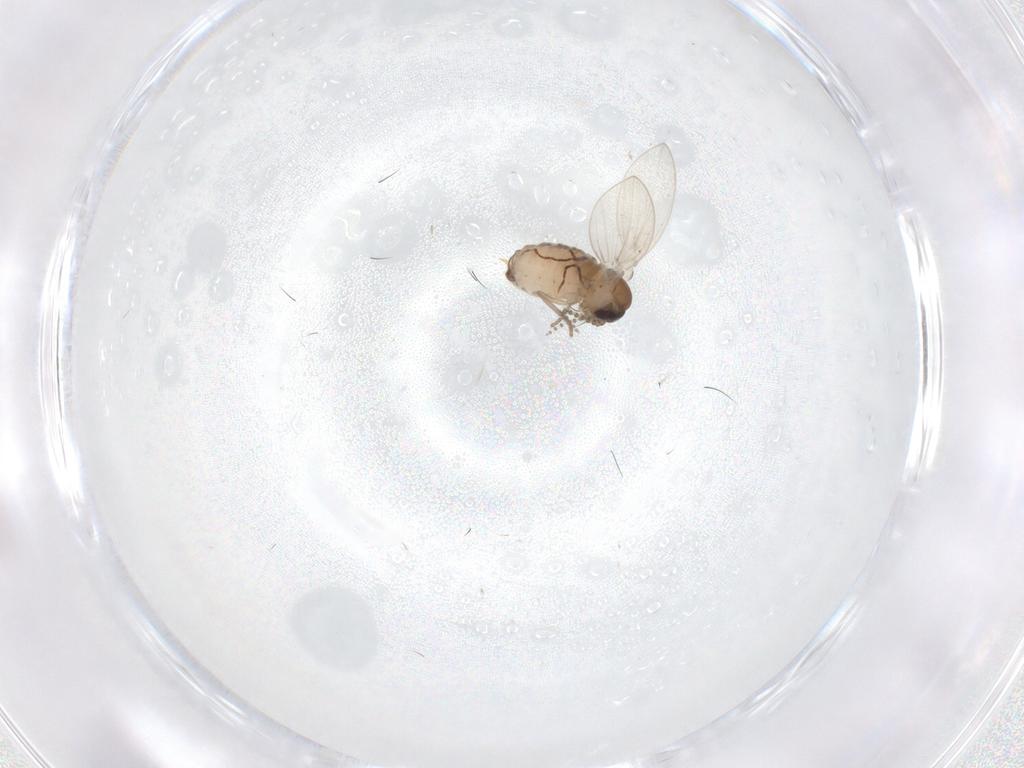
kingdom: Animalia
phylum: Arthropoda
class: Insecta
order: Diptera
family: Psychodidae
